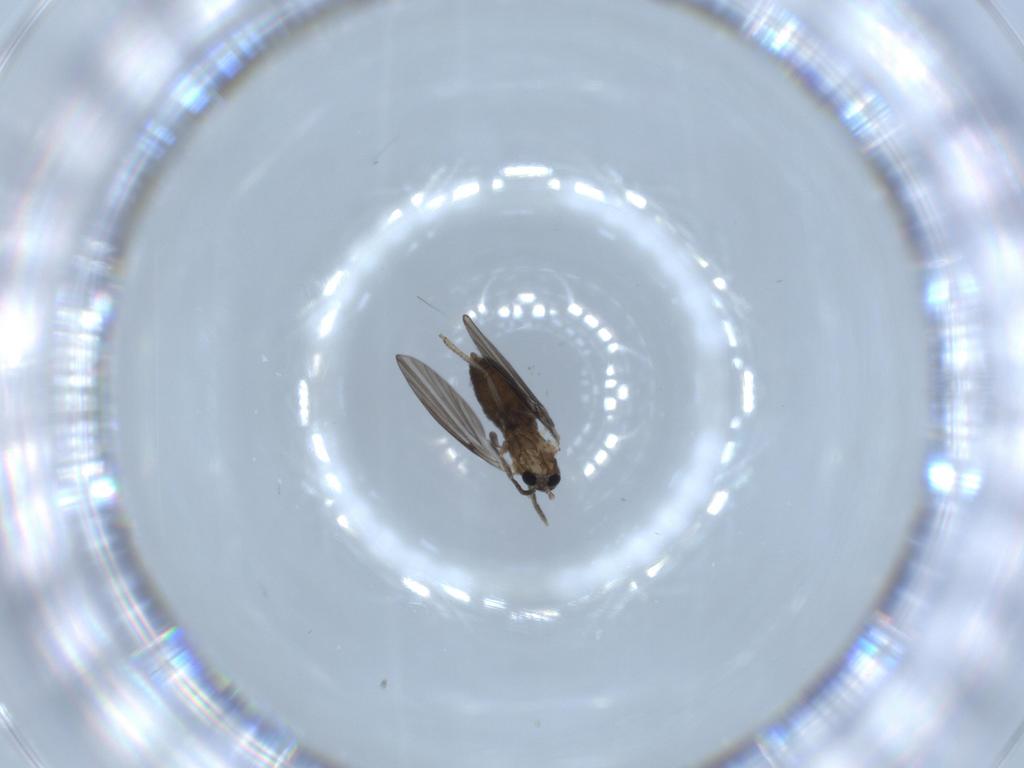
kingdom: Animalia
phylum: Arthropoda
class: Insecta
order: Diptera
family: Psychodidae
